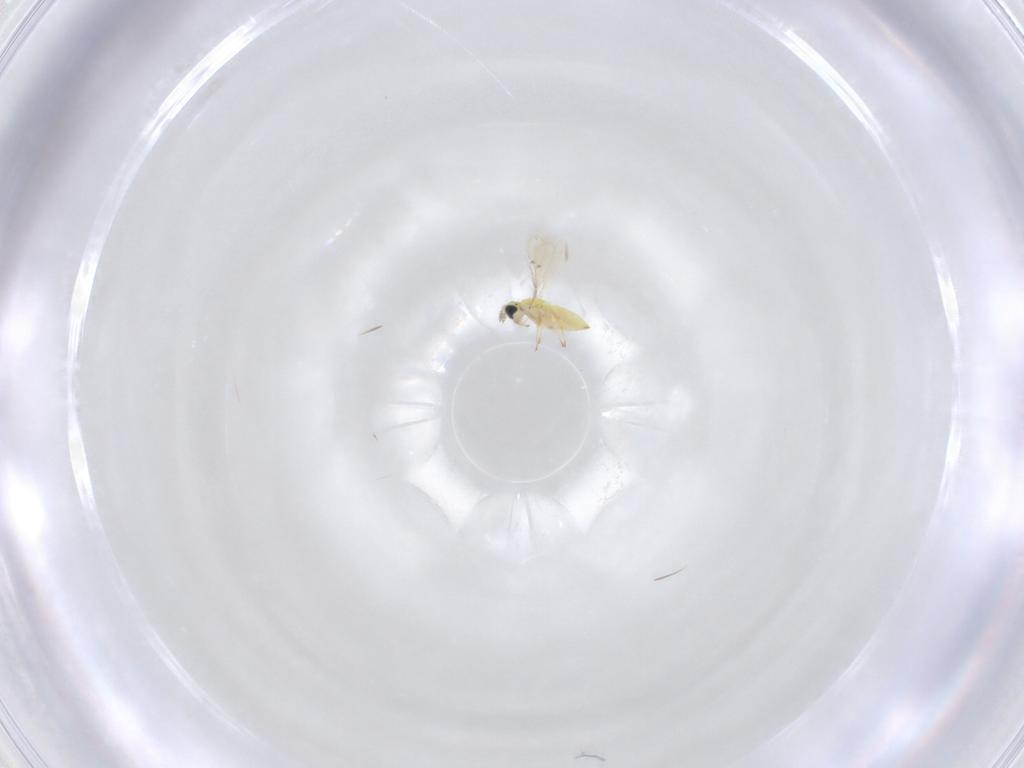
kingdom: Animalia
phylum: Arthropoda
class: Insecta
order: Hymenoptera
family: Trichogrammatidae
